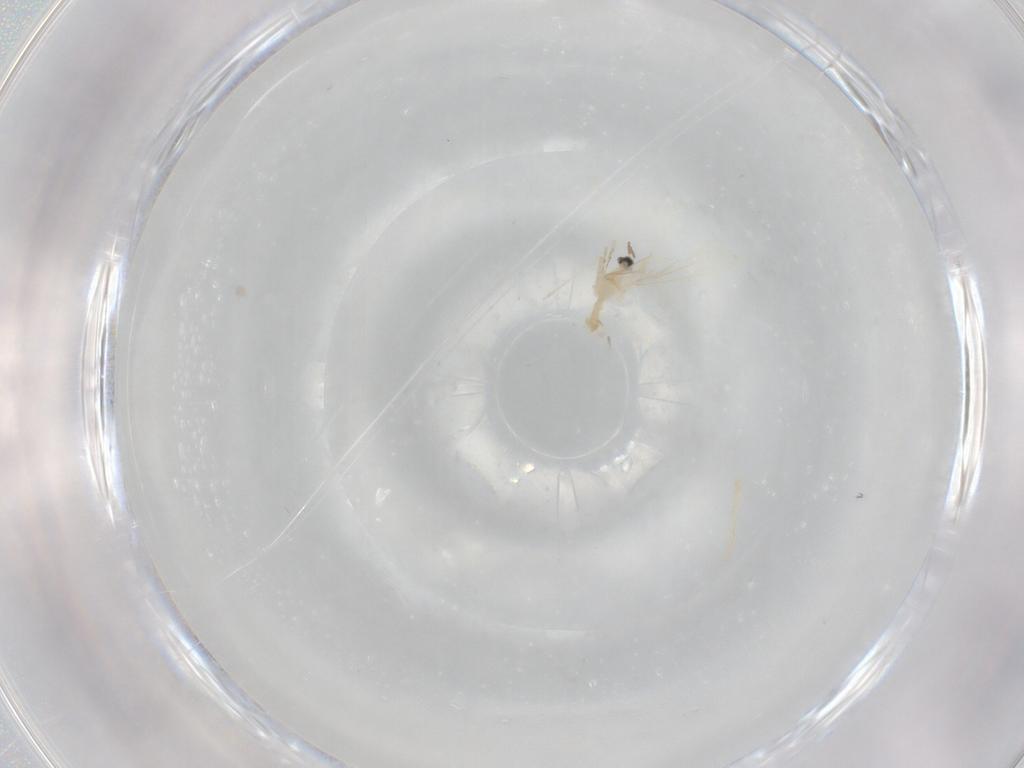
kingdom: Animalia
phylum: Arthropoda
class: Insecta
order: Diptera
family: Cecidomyiidae
